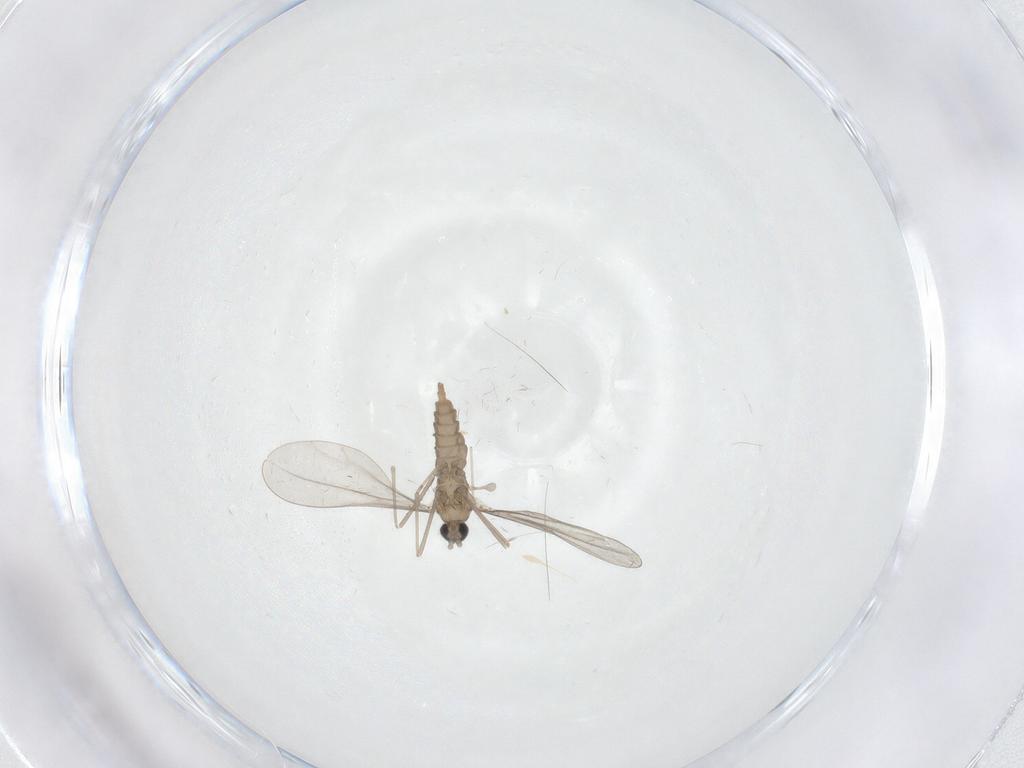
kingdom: Animalia
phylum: Arthropoda
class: Insecta
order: Diptera
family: Cecidomyiidae
